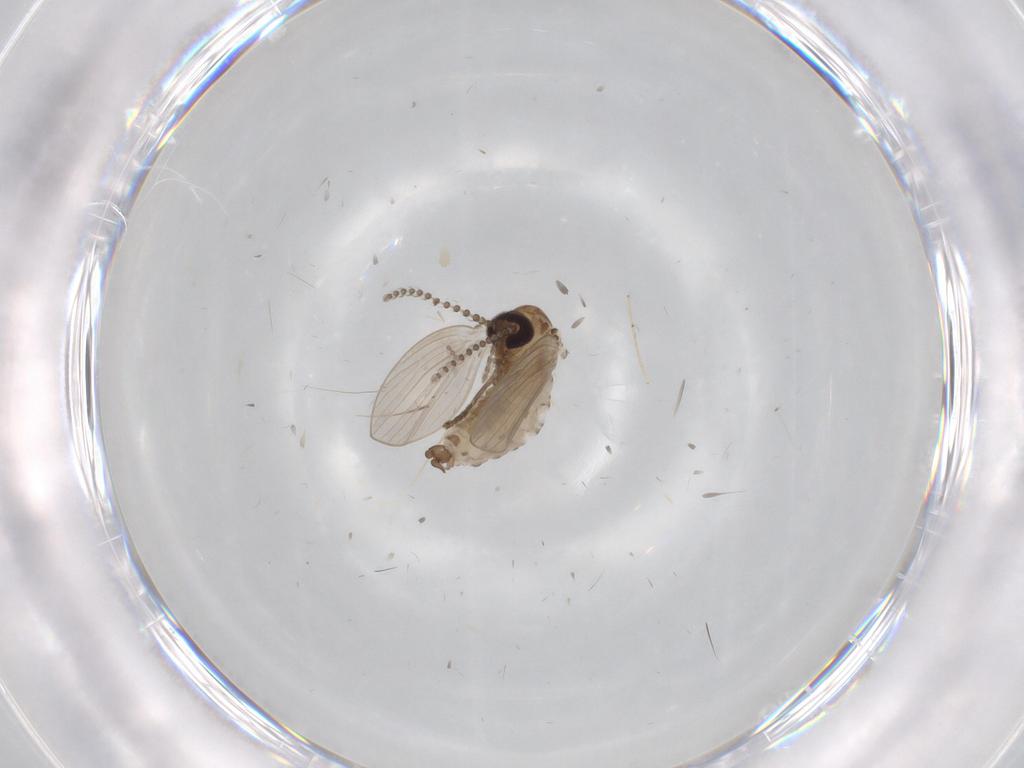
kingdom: Animalia
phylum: Arthropoda
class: Insecta
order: Diptera
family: Psychodidae
